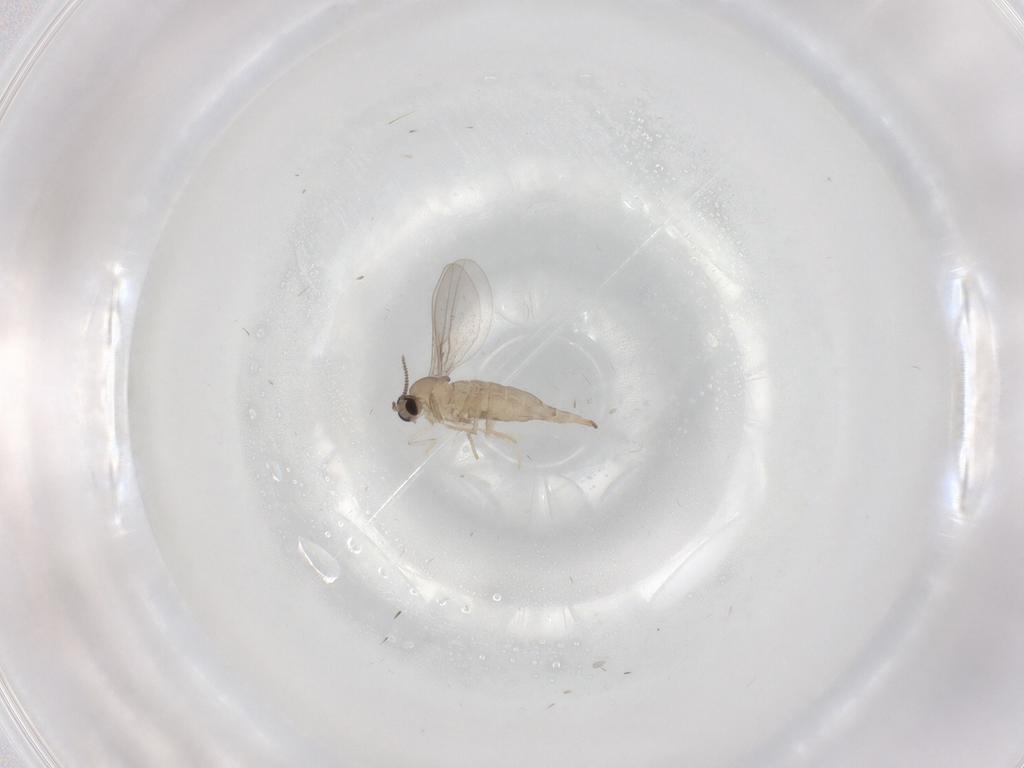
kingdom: Animalia
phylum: Arthropoda
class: Insecta
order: Diptera
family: Cecidomyiidae
